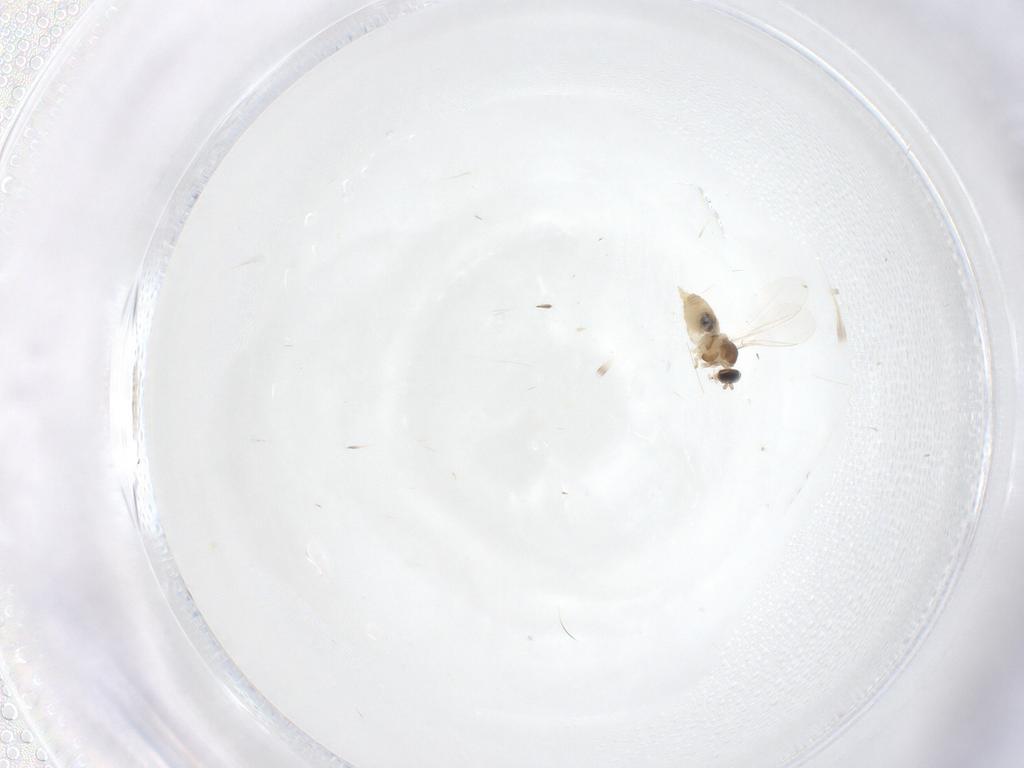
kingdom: Animalia
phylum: Arthropoda
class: Insecta
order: Diptera
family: Cecidomyiidae
